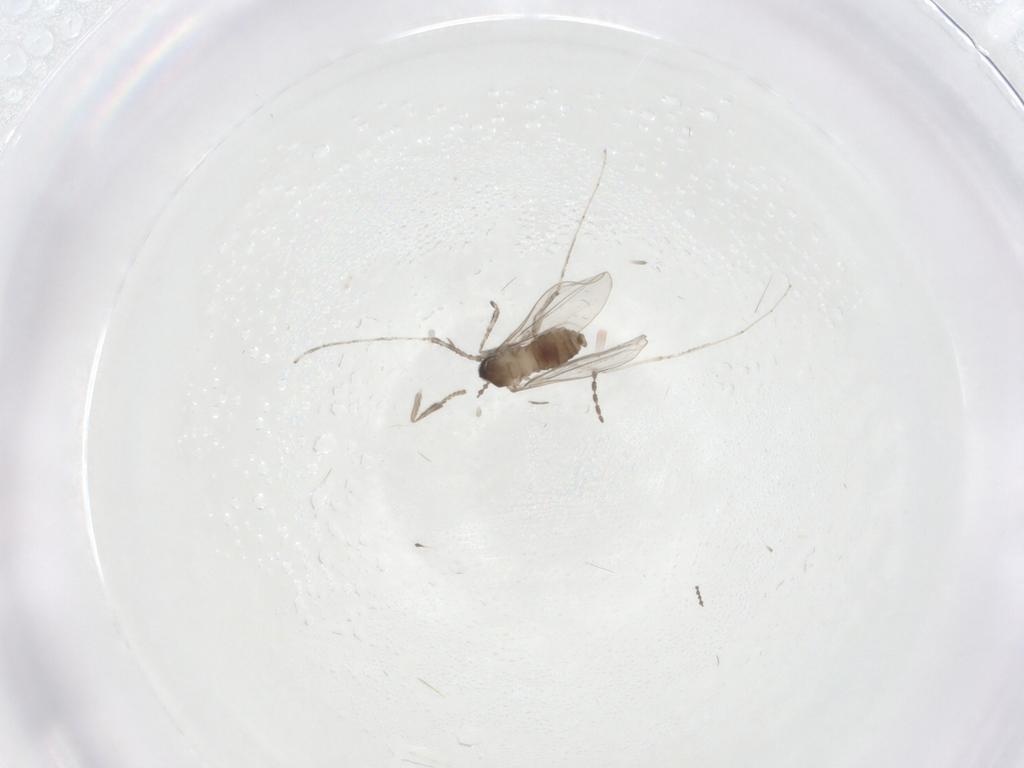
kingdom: Animalia
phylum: Arthropoda
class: Insecta
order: Diptera
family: Cecidomyiidae
